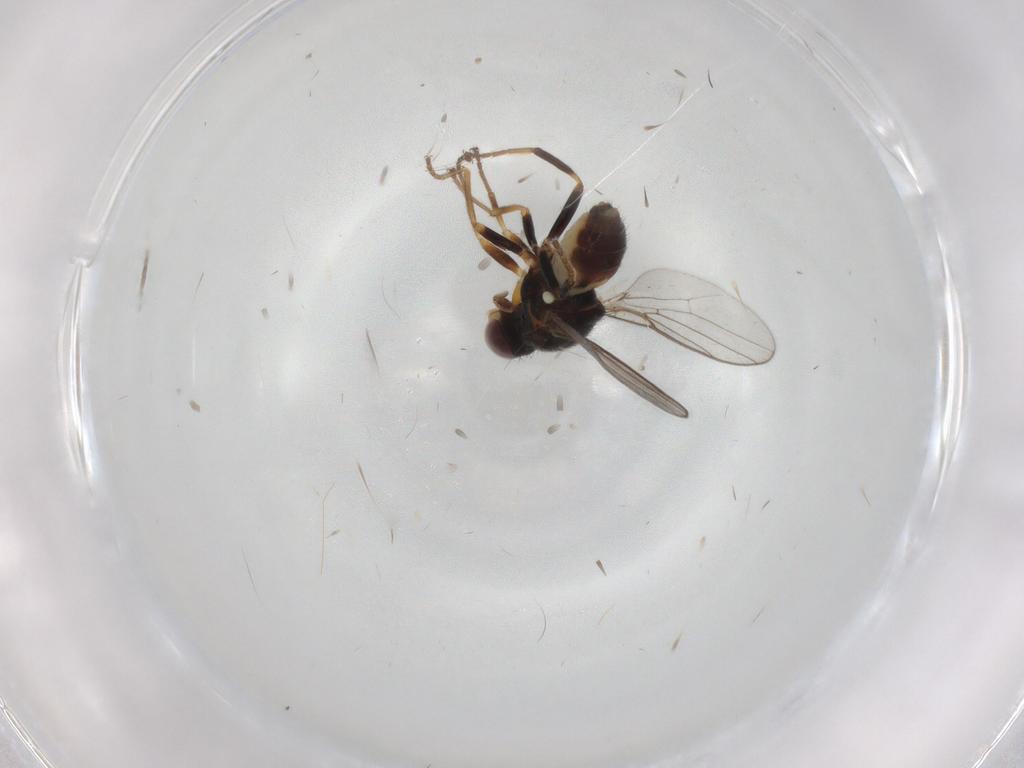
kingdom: Animalia
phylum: Arthropoda
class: Insecta
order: Diptera
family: Chloropidae
